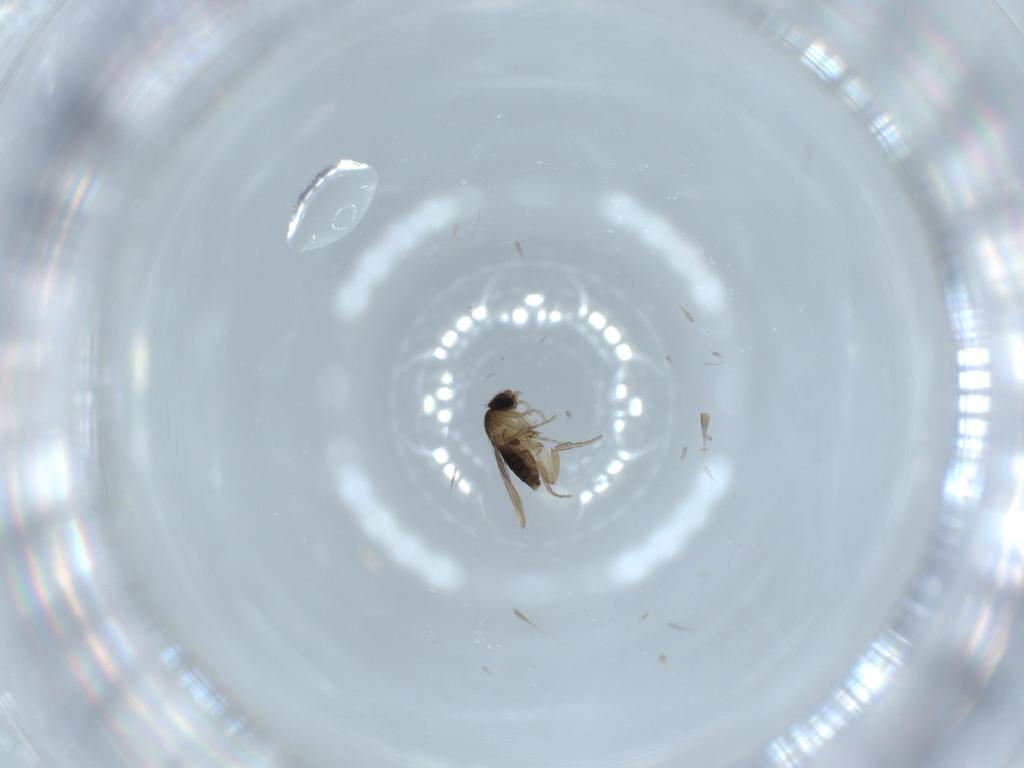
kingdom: Animalia
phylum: Arthropoda
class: Insecta
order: Diptera
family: Phoridae
